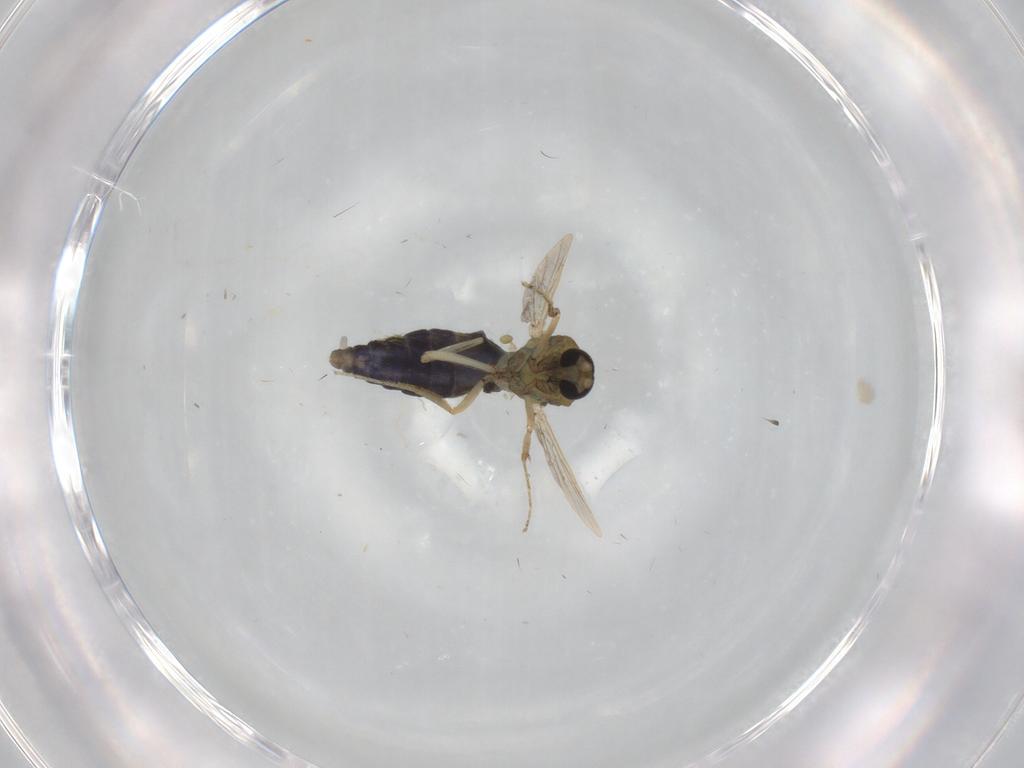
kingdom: Animalia
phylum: Arthropoda
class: Insecta
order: Diptera
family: Ceratopogonidae
